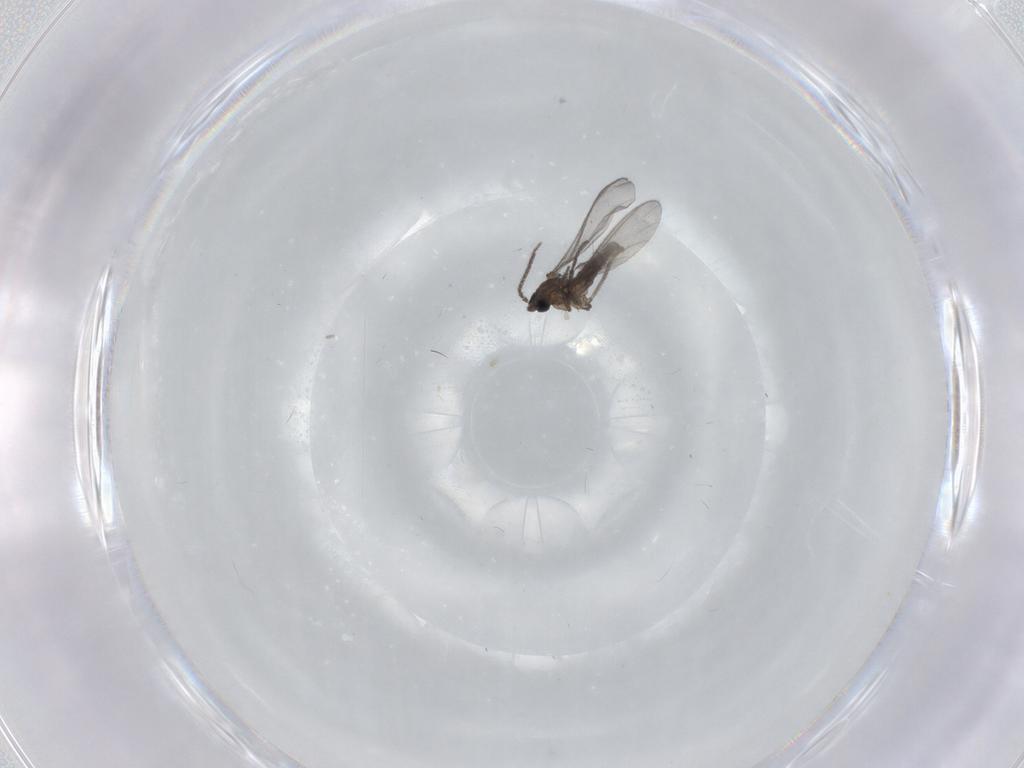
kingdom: Animalia
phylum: Arthropoda
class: Insecta
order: Diptera
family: Sciaridae
